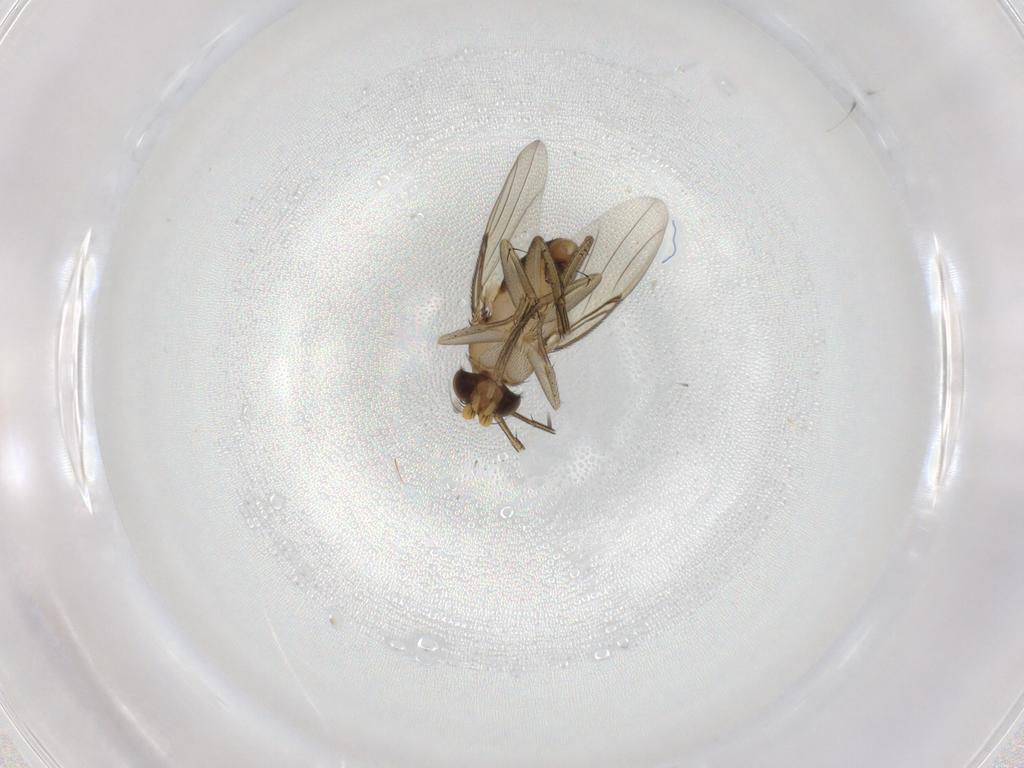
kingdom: Animalia
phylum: Arthropoda
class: Insecta
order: Diptera
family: Phoridae
